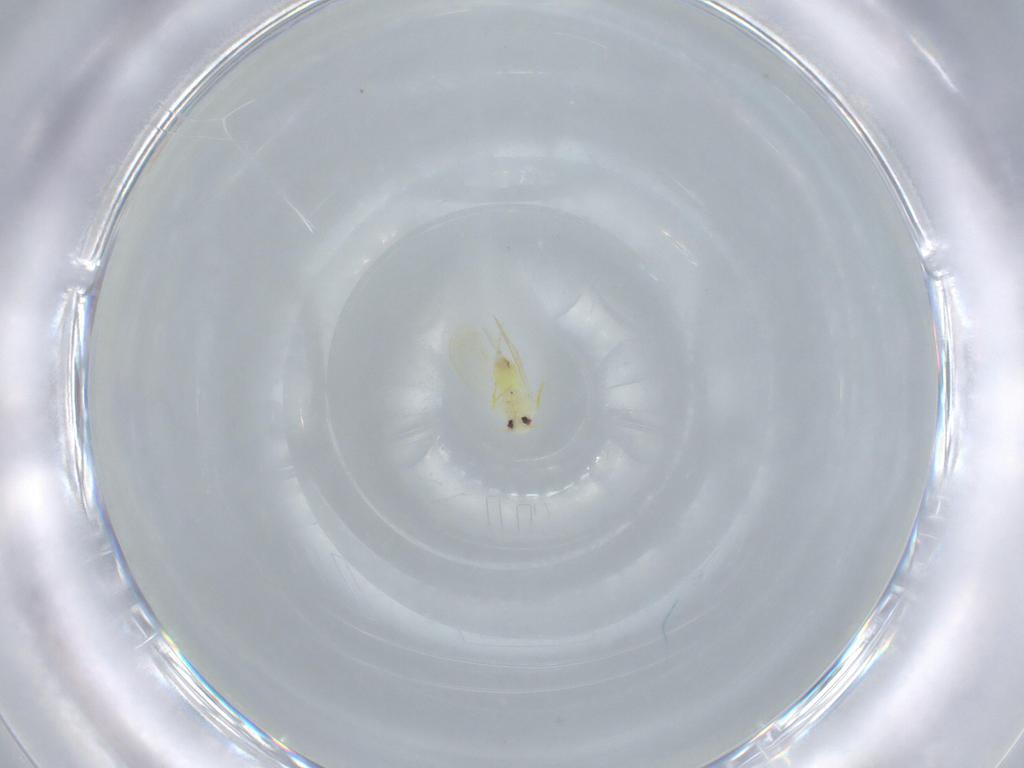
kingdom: Animalia
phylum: Arthropoda
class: Insecta
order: Hemiptera
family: Aleyrodidae
